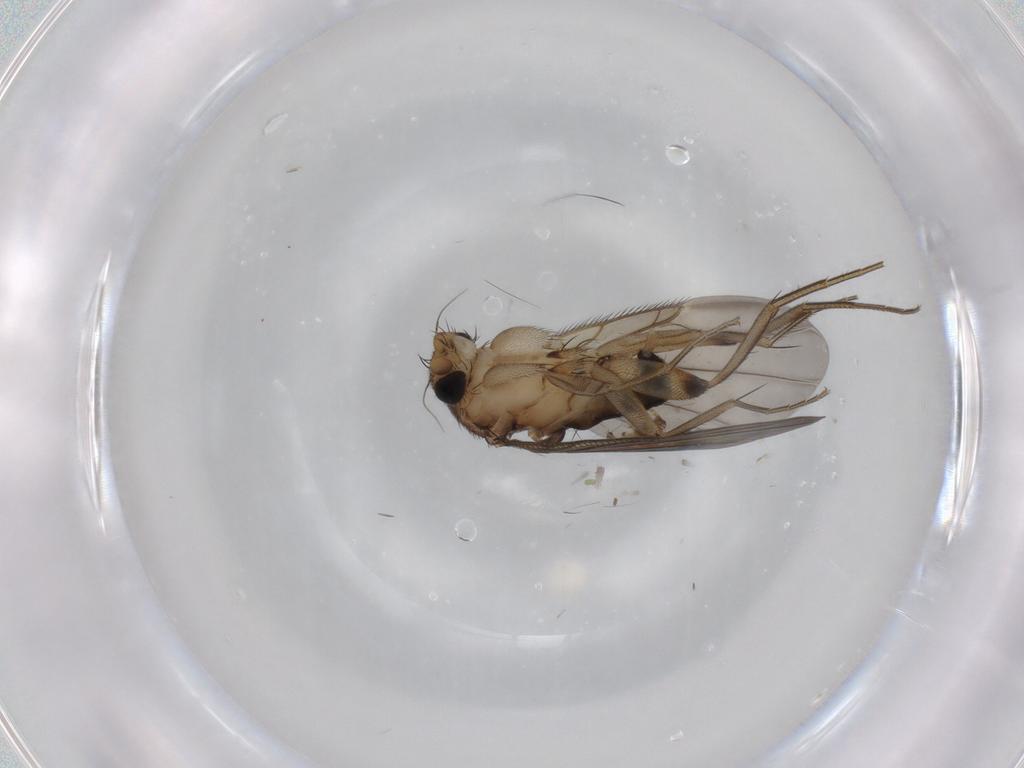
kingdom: Animalia
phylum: Arthropoda
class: Insecta
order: Diptera
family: Phoridae
